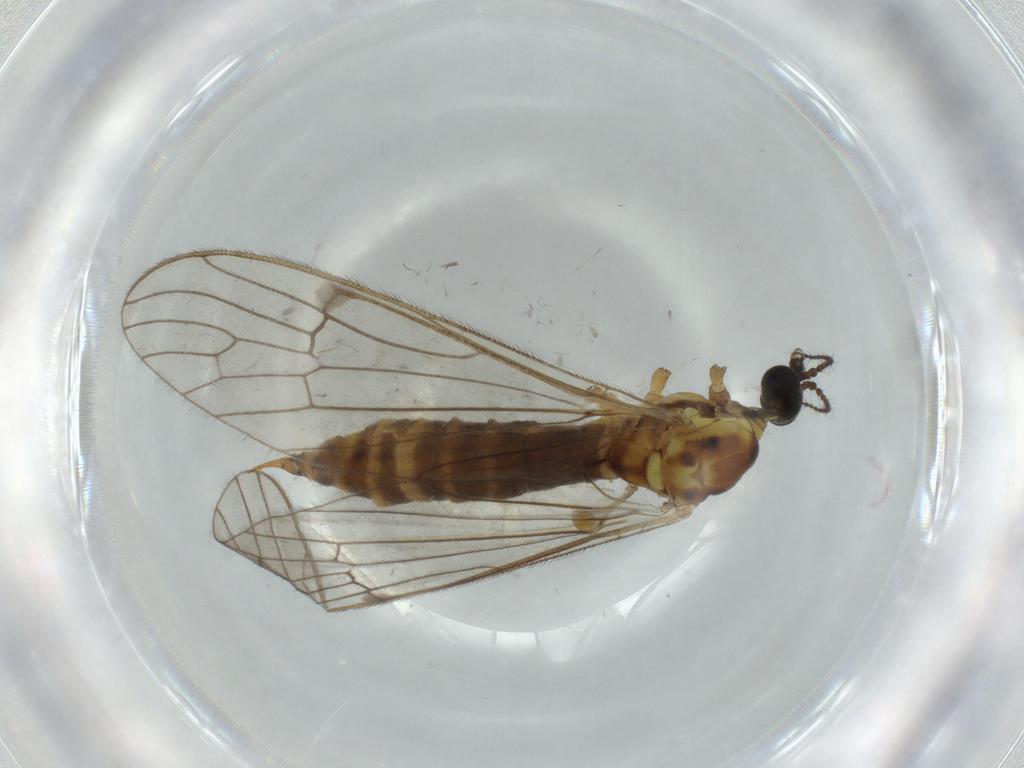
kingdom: Animalia
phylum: Arthropoda
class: Insecta
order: Diptera
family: Limoniidae
